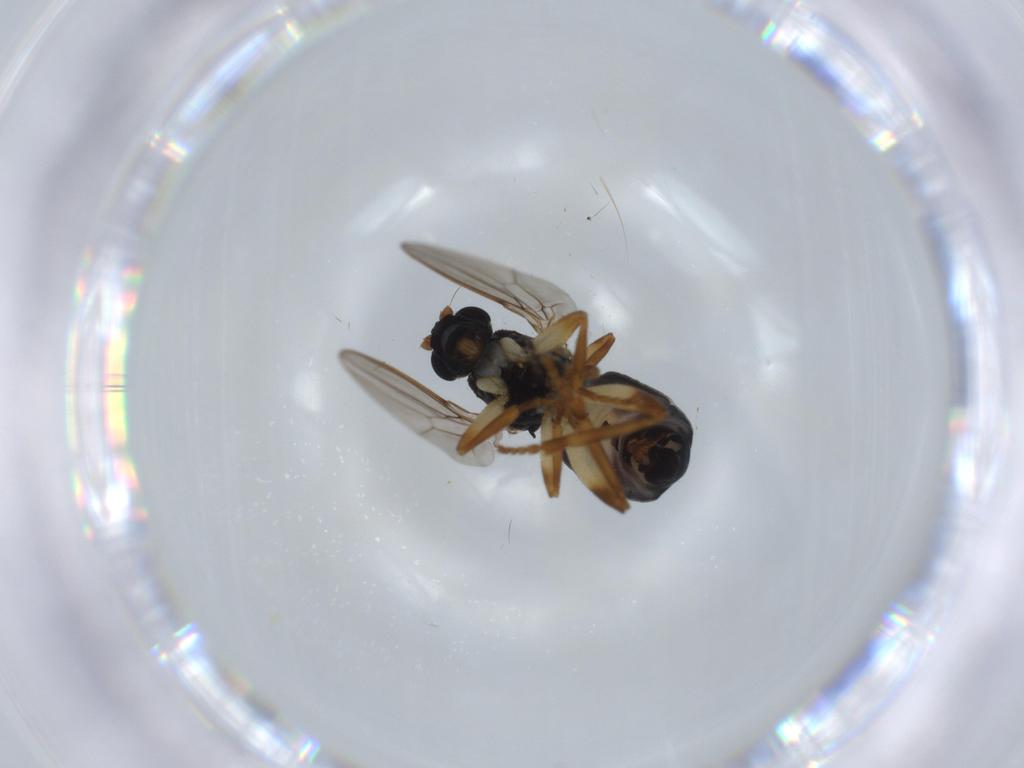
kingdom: Animalia
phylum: Arthropoda
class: Insecta
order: Diptera
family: Sphaeroceridae
